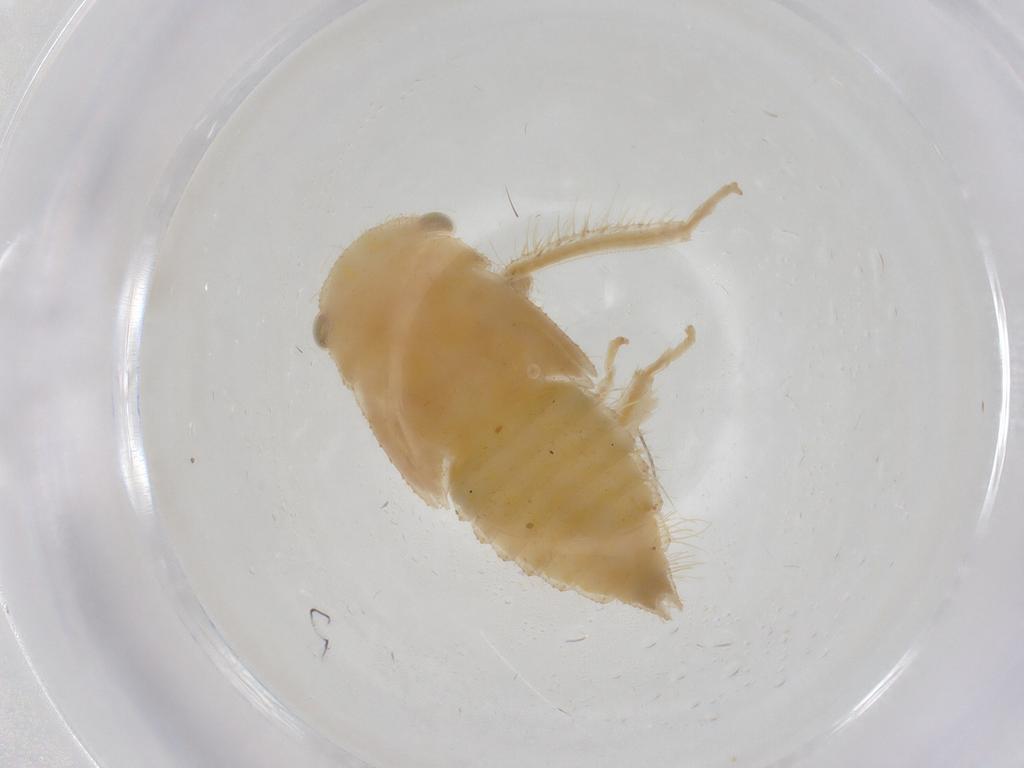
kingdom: Animalia
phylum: Arthropoda
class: Insecta
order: Hemiptera
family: Cicadellidae
